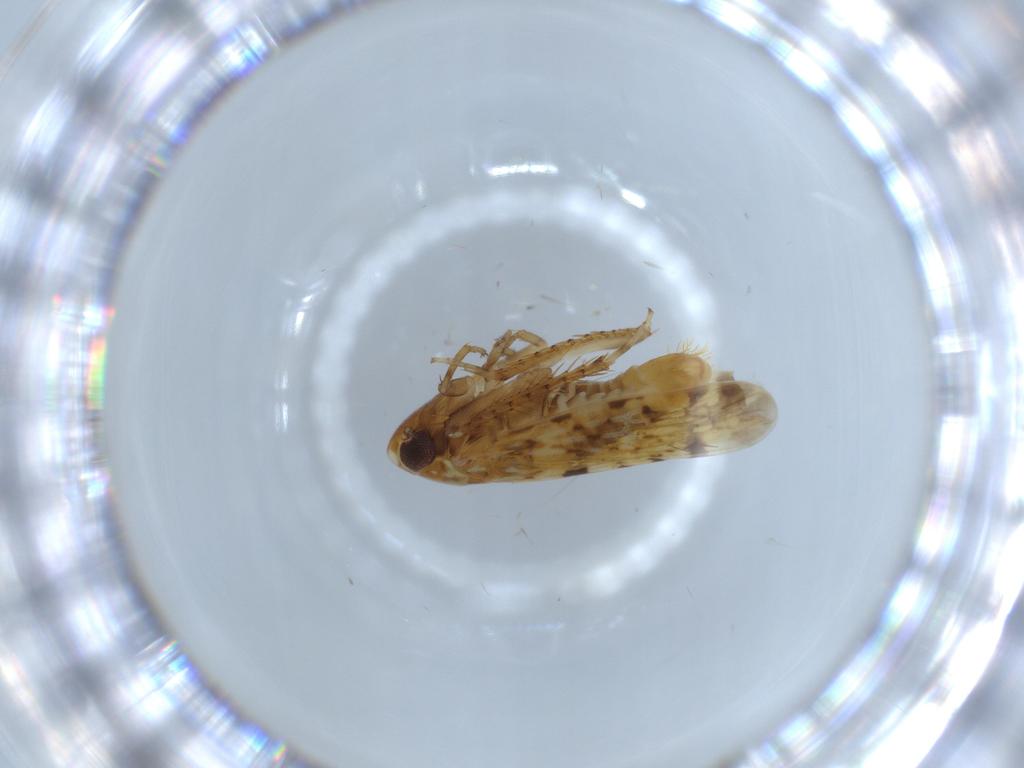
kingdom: Animalia
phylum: Arthropoda
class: Insecta
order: Hemiptera
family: Cicadellidae
